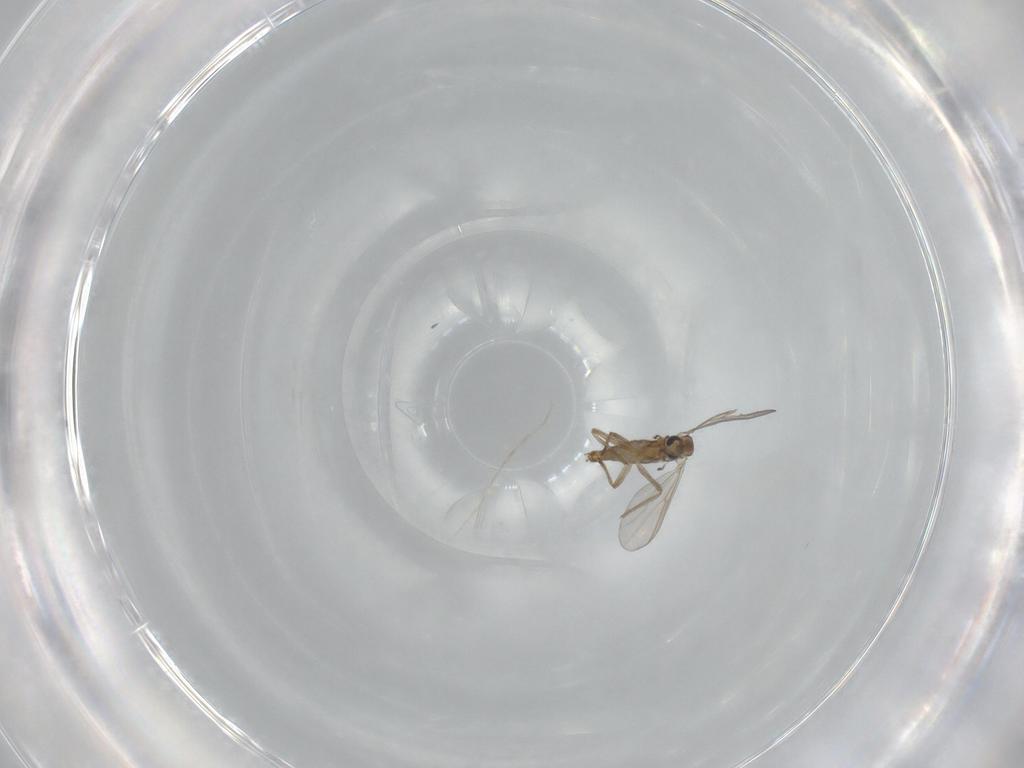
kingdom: Animalia
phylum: Arthropoda
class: Insecta
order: Diptera
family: Chironomidae
